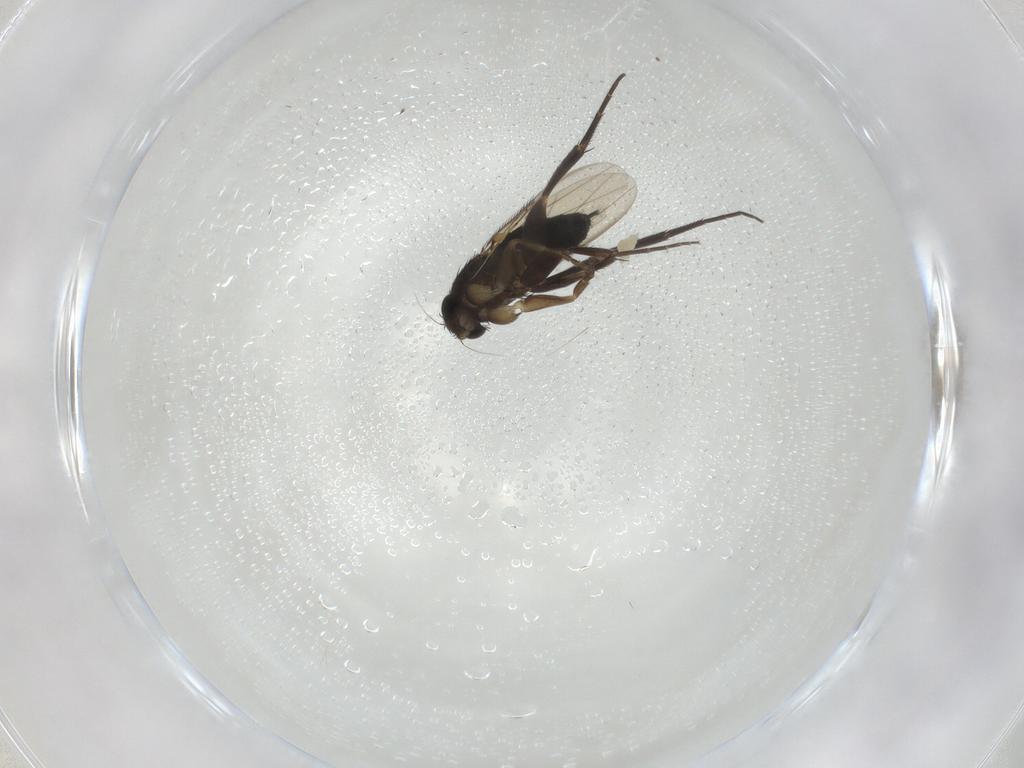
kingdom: Animalia
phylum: Arthropoda
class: Insecta
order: Diptera
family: Phoridae
